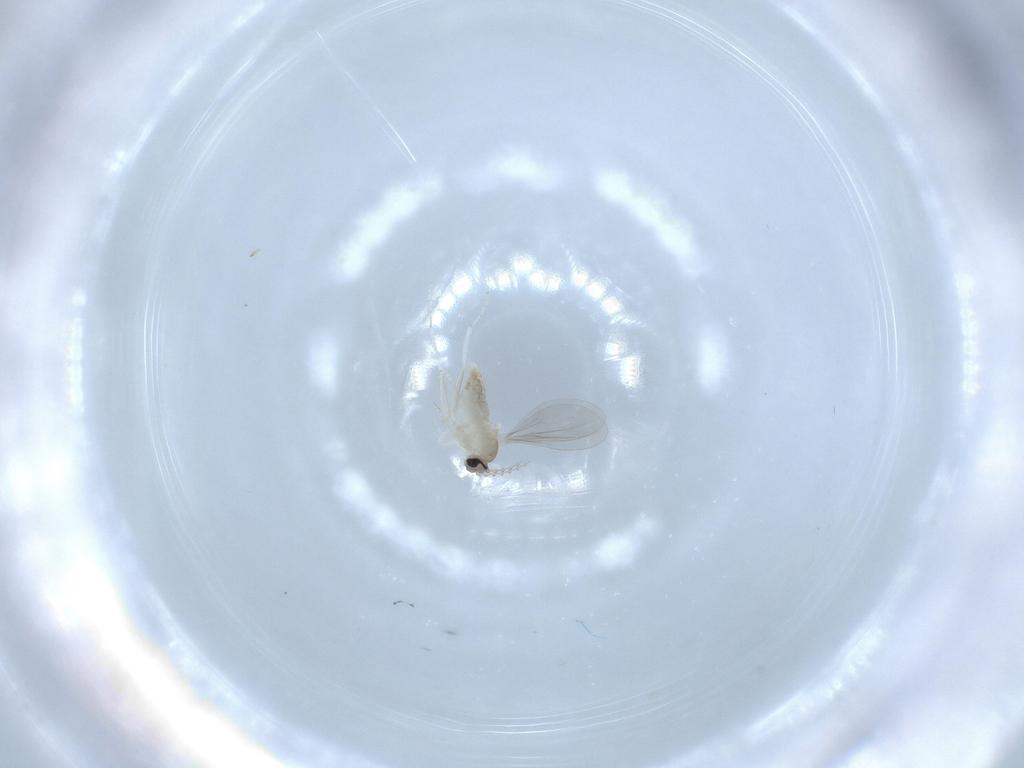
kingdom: Animalia
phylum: Arthropoda
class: Insecta
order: Diptera
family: Cecidomyiidae
